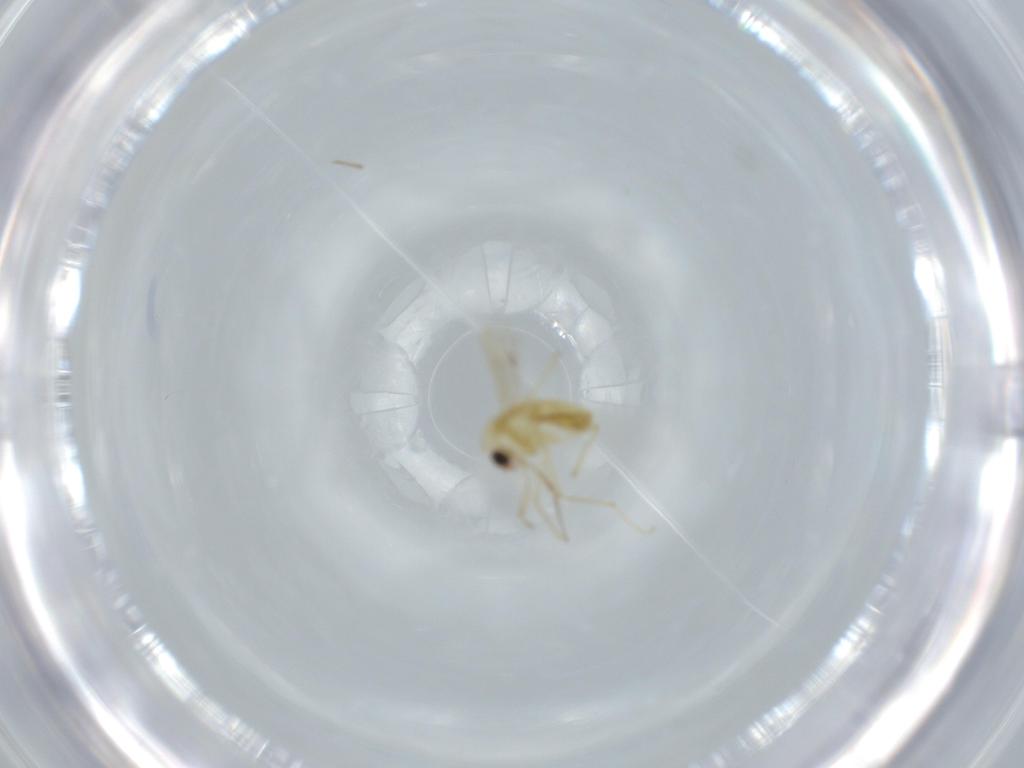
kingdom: Animalia
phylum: Arthropoda
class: Insecta
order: Diptera
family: Chironomidae
